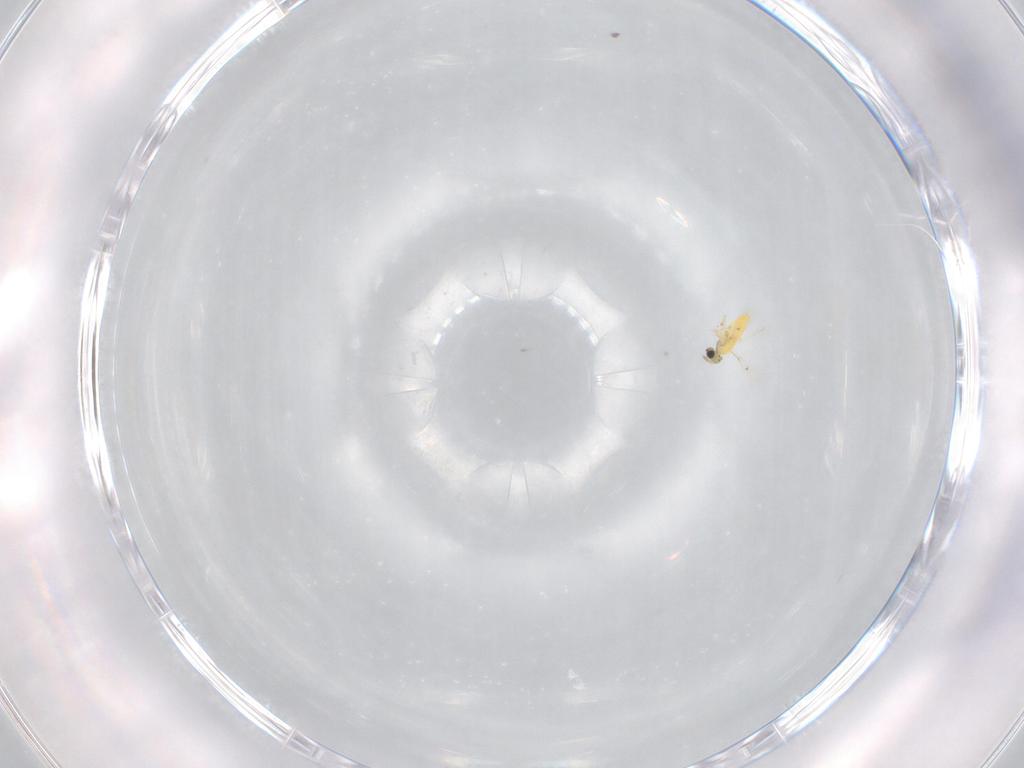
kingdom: Animalia
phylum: Arthropoda
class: Insecta
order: Hymenoptera
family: Trichogrammatidae
